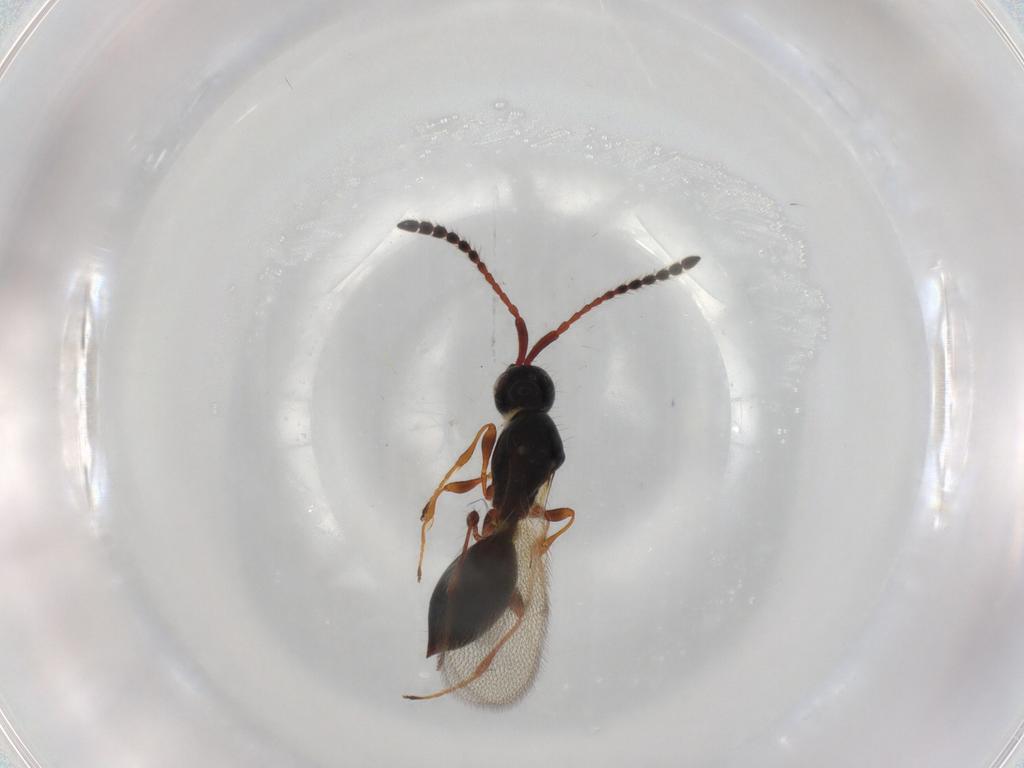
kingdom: Animalia
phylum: Arthropoda
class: Insecta
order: Hymenoptera
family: Diapriidae
